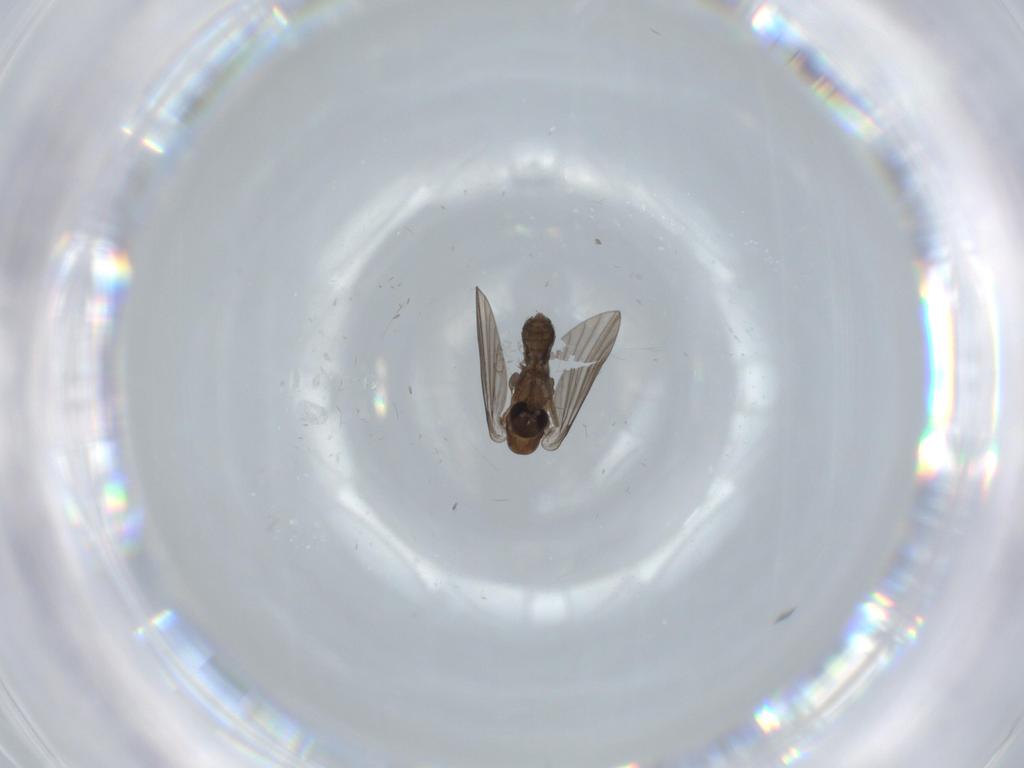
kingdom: Animalia
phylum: Arthropoda
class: Insecta
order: Diptera
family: Psychodidae
